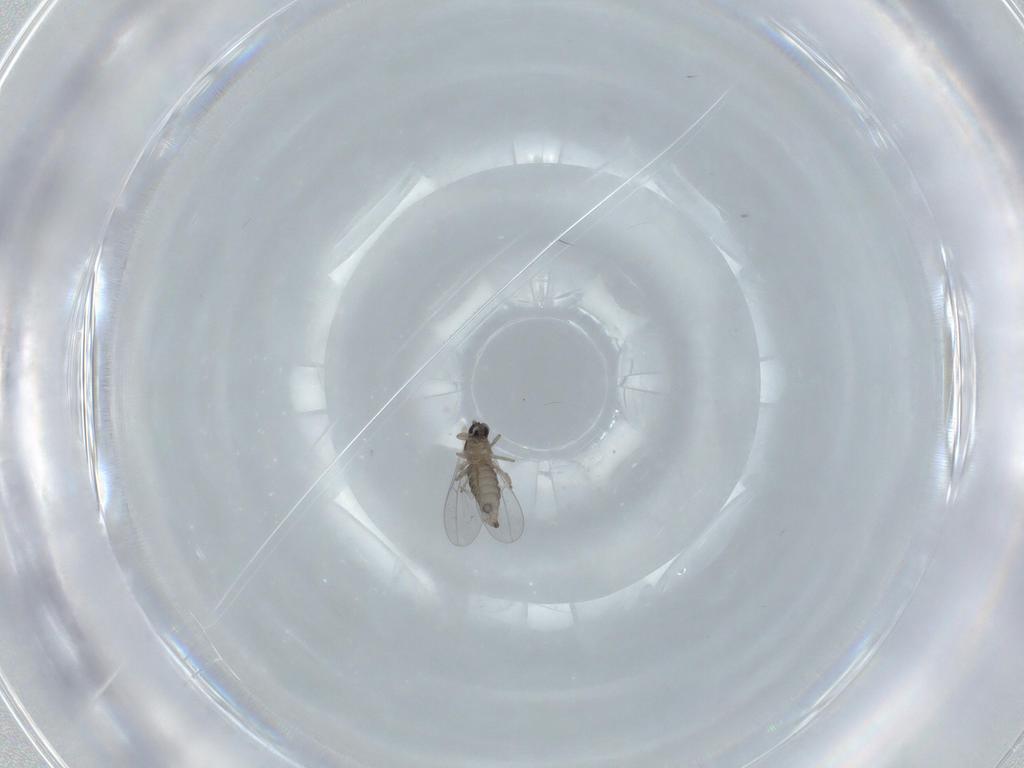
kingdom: Animalia
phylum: Arthropoda
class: Insecta
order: Diptera
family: Cecidomyiidae
